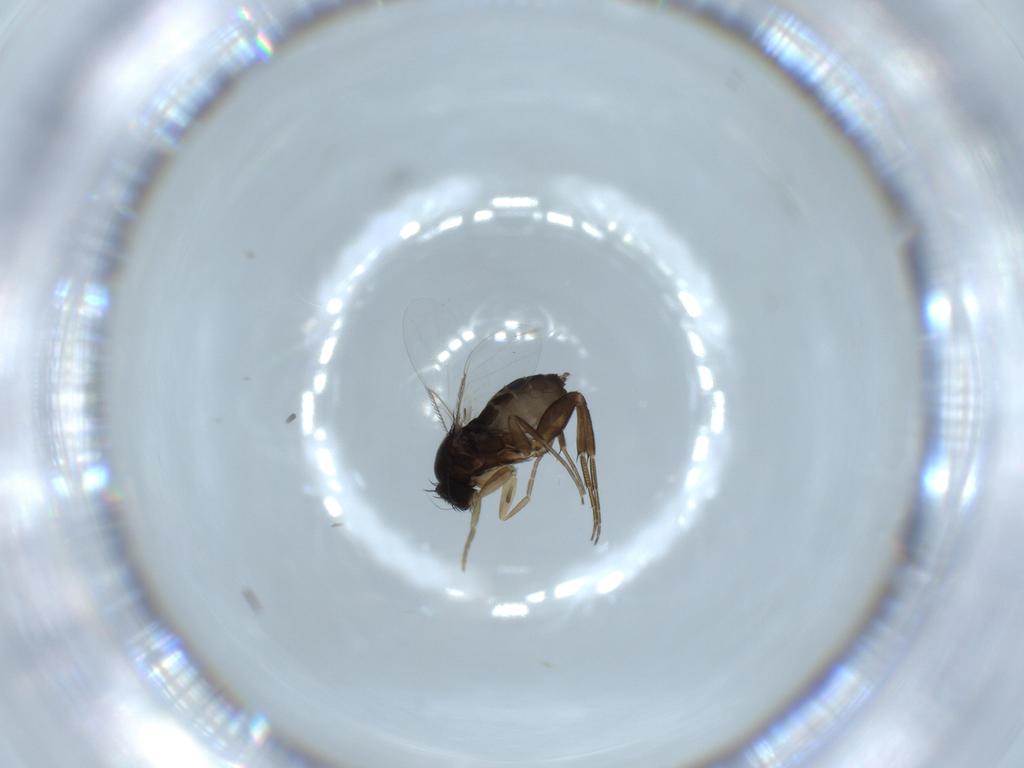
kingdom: Animalia
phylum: Arthropoda
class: Insecta
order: Diptera
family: Phoridae
